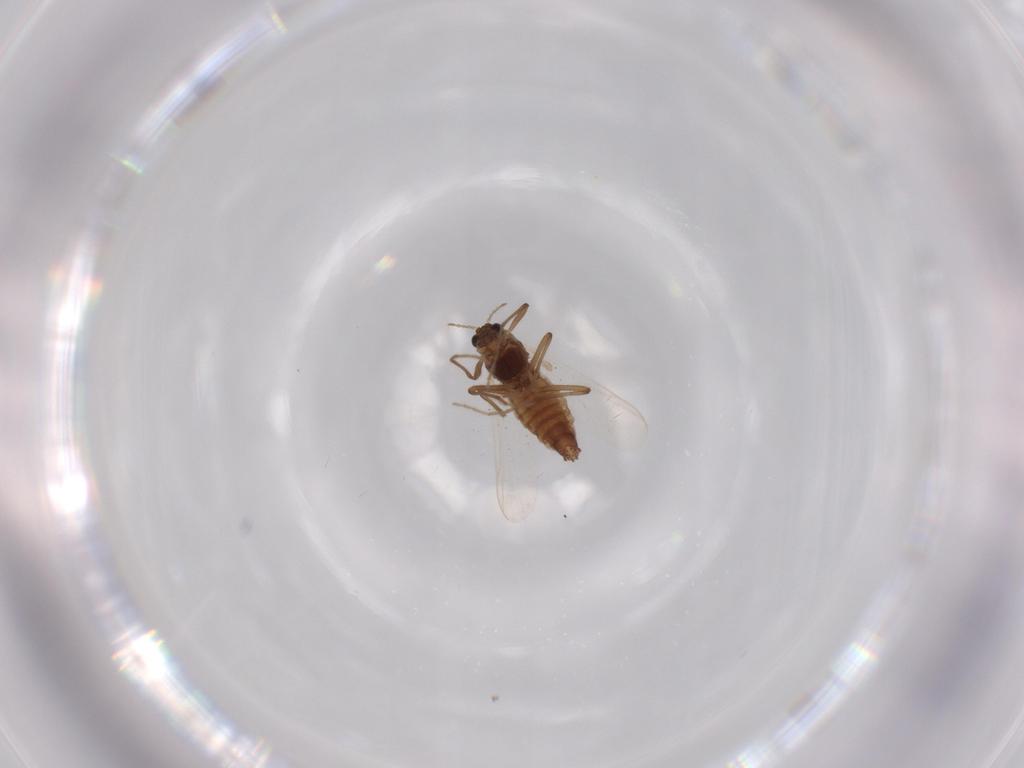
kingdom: Animalia
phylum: Arthropoda
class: Insecta
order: Diptera
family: Chironomidae
